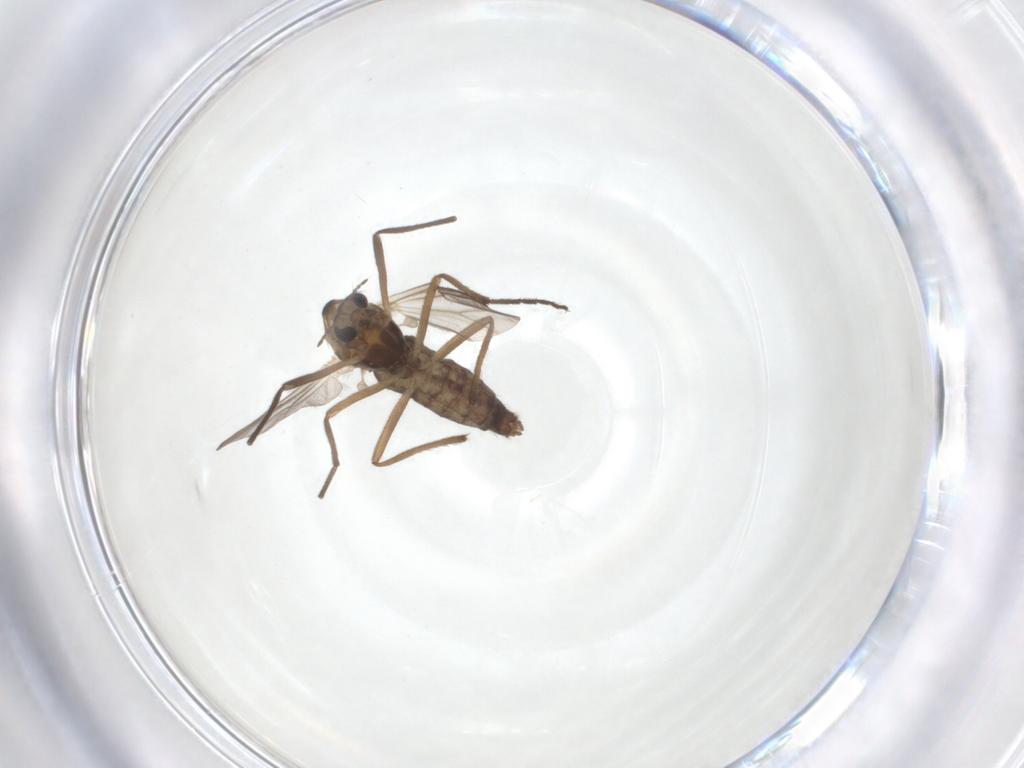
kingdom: Animalia
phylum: Arthropoda
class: Insecta
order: Diptera
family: Chironomidae
